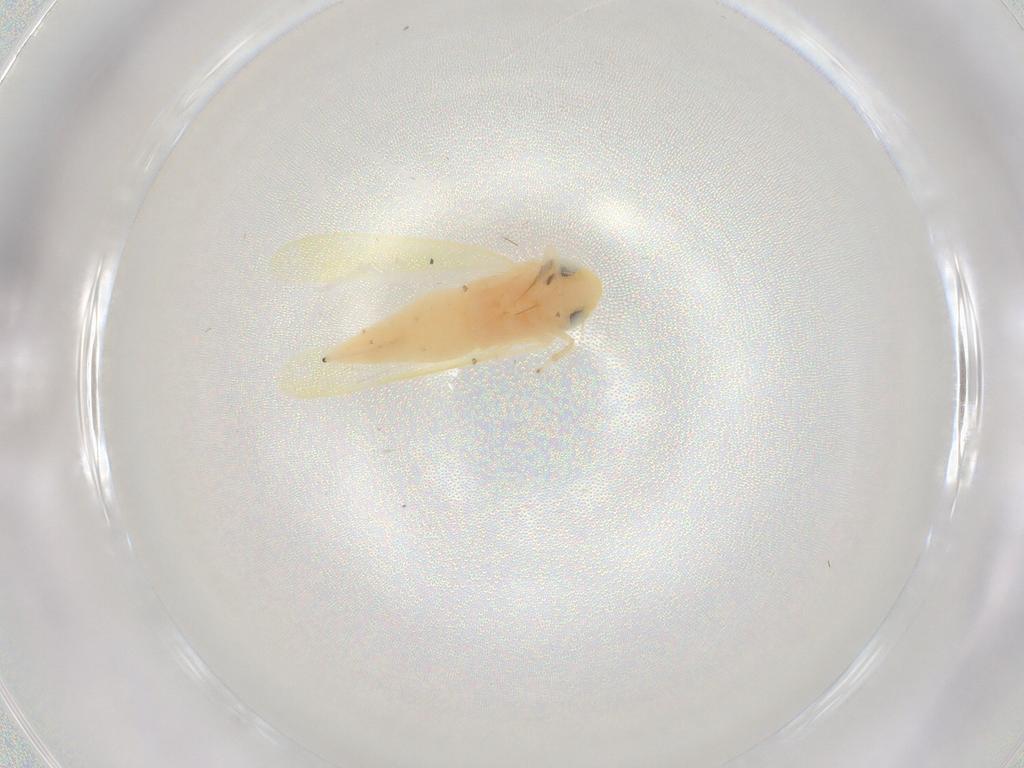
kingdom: Animalia
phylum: Arthropoda
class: Insecta
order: Hemiptera
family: Cicadellidae
